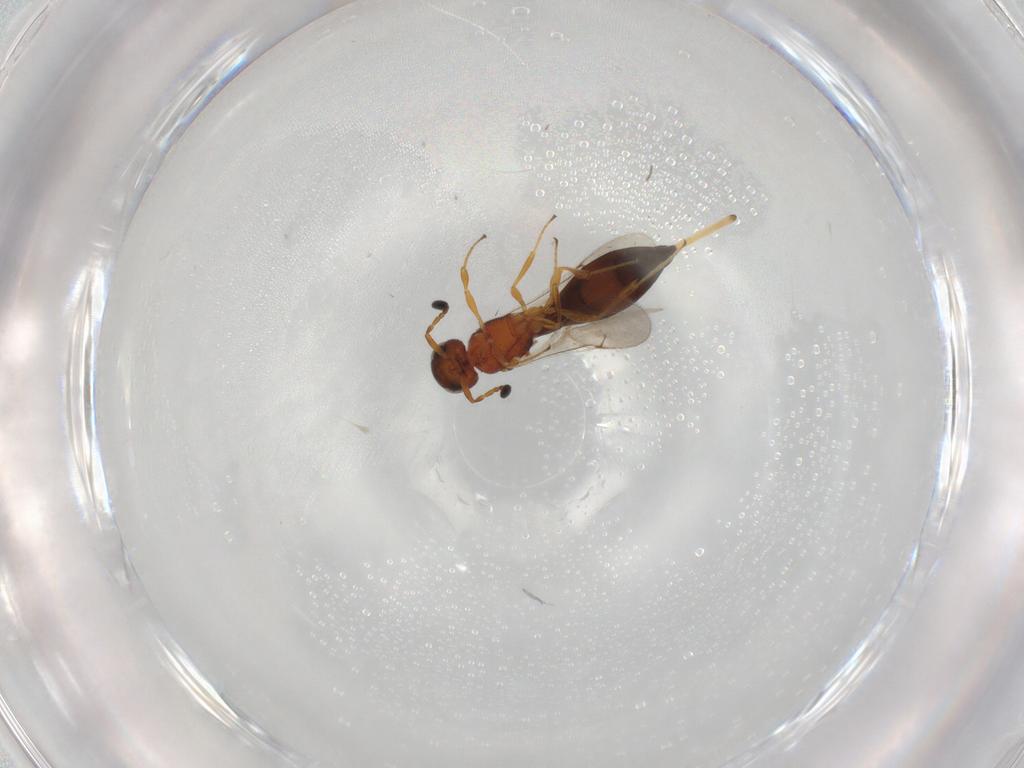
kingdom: Animalia
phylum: Arthropoda
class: Insecta
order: Hymenoptera
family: Scelionidae
